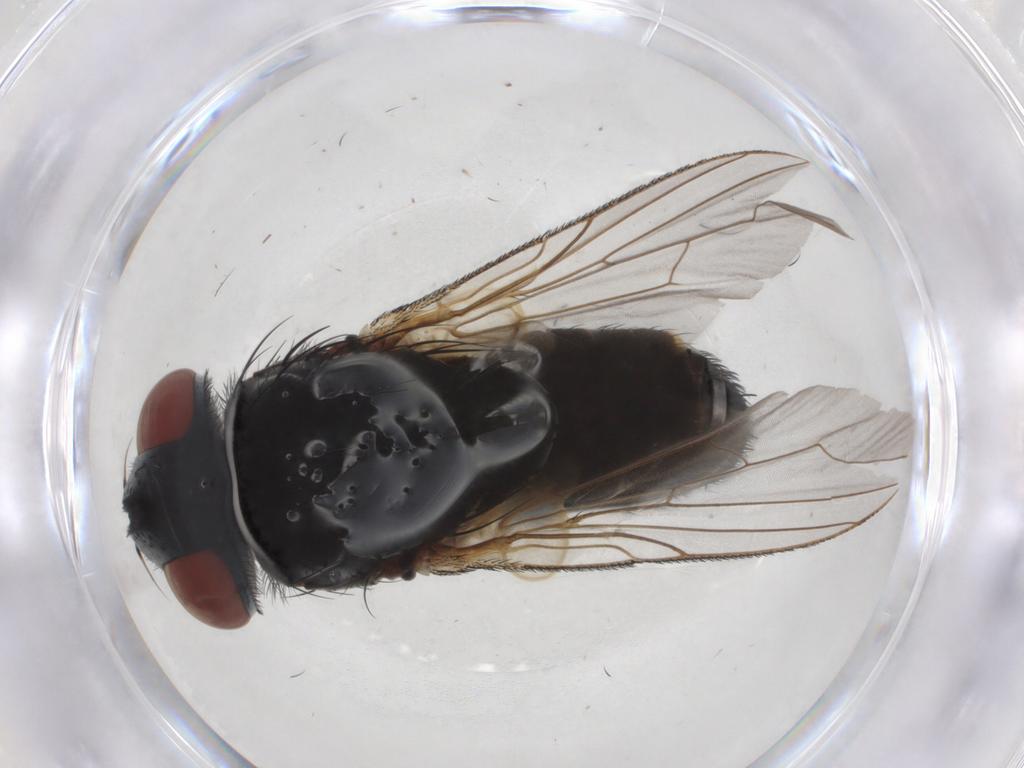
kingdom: Animalia
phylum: Arthropoda
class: Insecta
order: Diptera
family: Sarcophagidae
